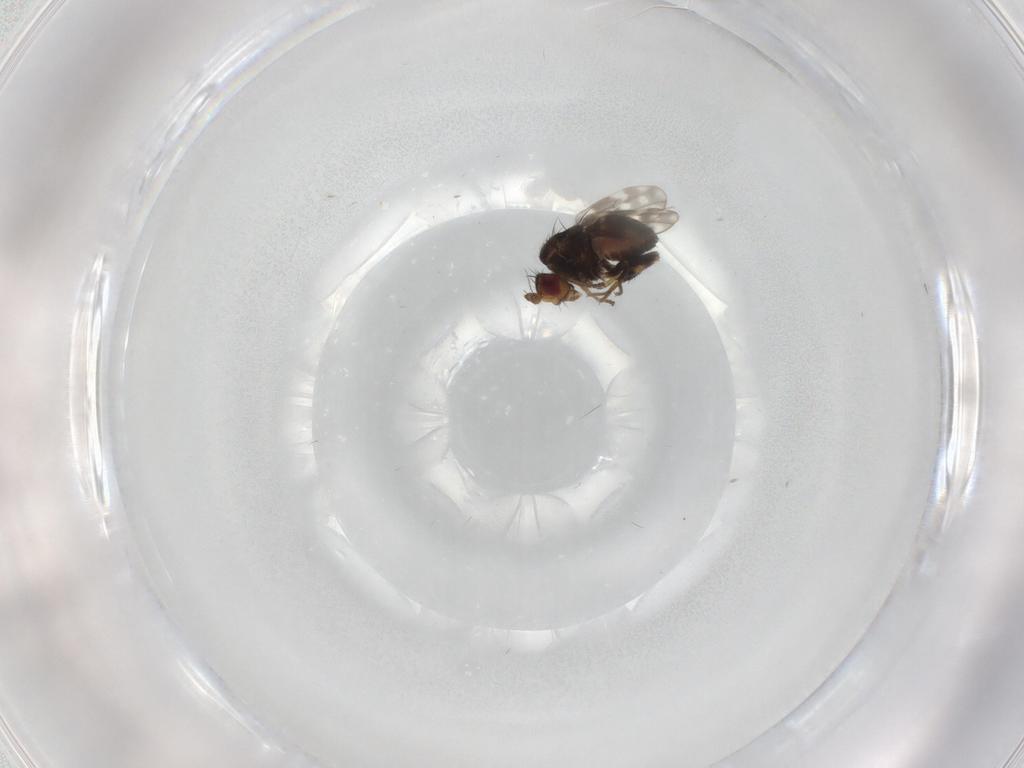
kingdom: Animalia
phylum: Arthropoda
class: Insecta
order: Diptera
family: Sphaeroceridae
